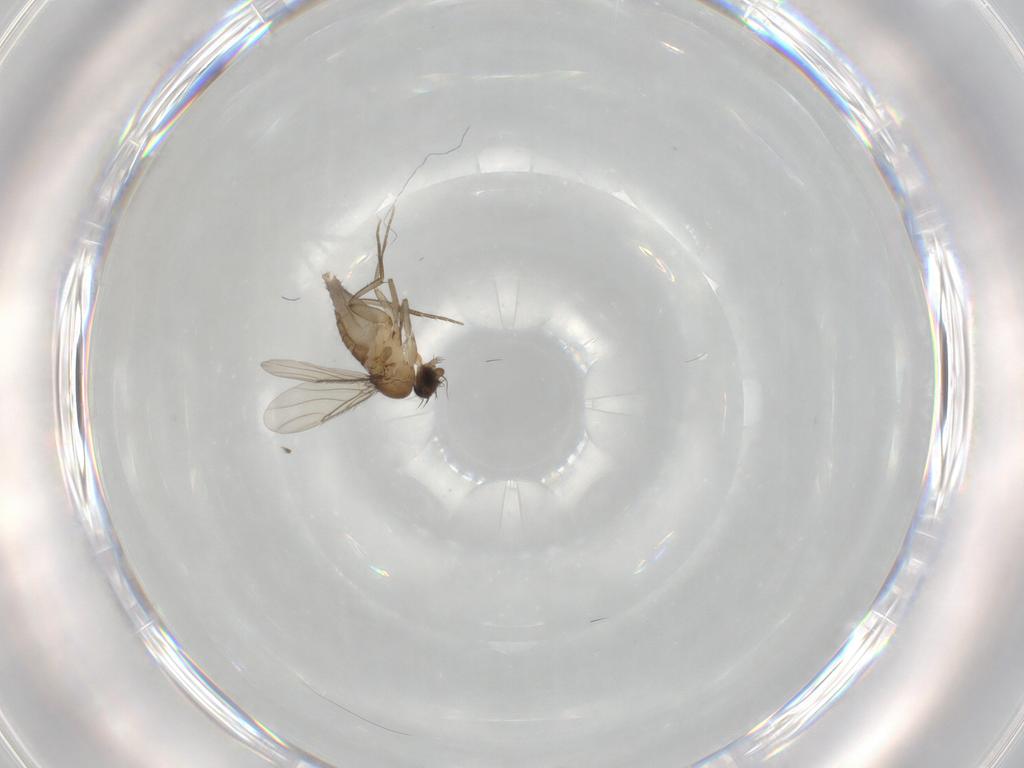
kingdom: Animalia
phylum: Arthropoda
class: Insecta
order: Diptera
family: Phoridae
